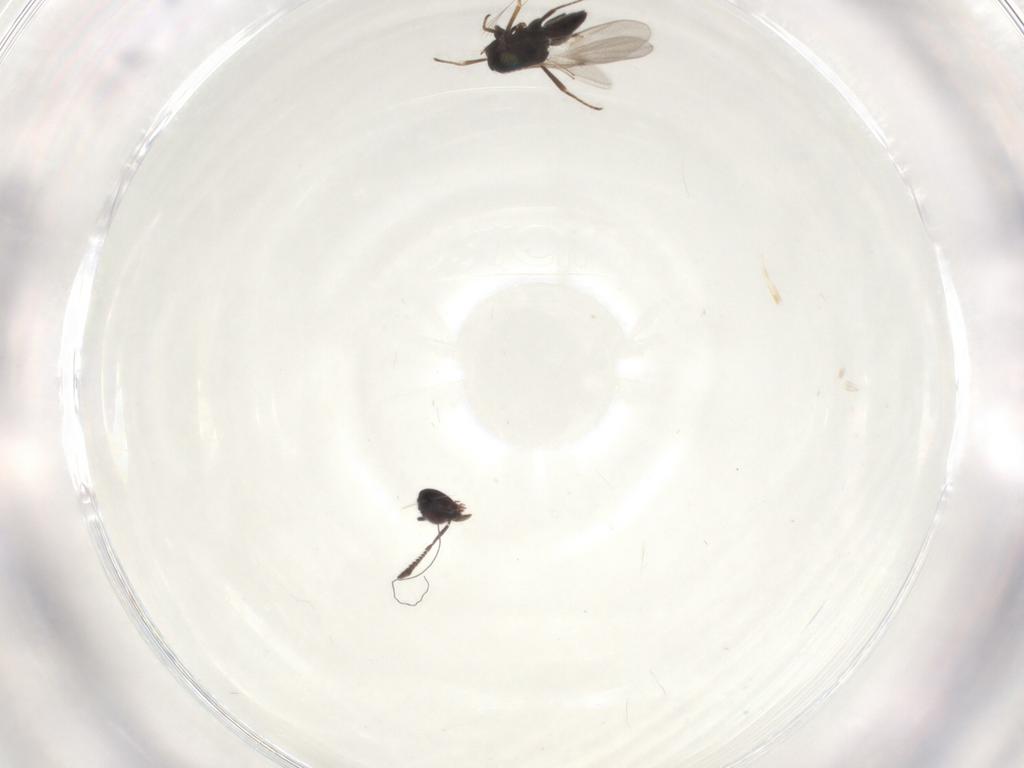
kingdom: Animalia
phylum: Arthropoda
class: Insecta
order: Hymenoptera
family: Encyrtidae
